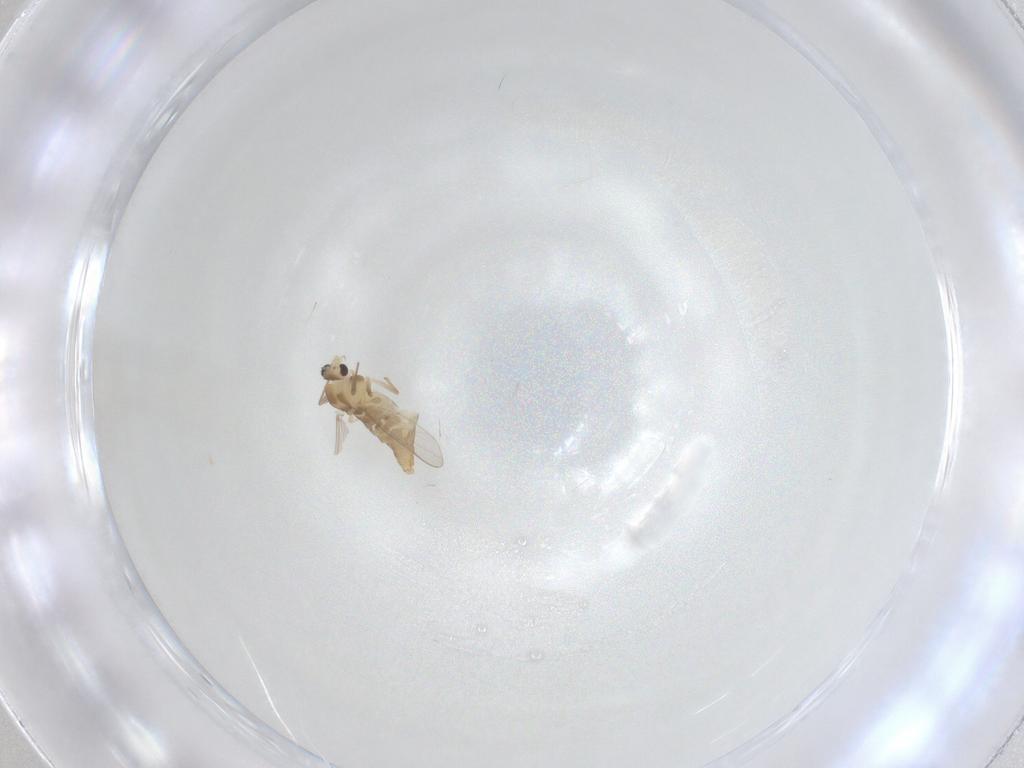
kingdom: Animalia
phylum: Arthropoda
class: Insecta
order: Diptera
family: Chironomidae
